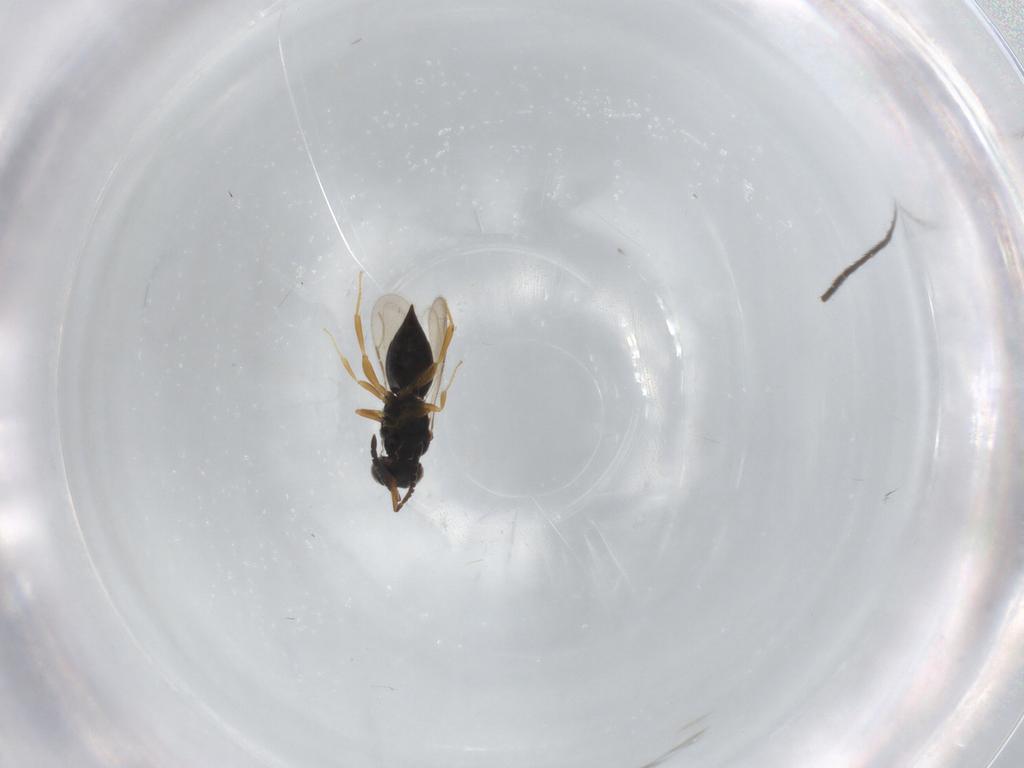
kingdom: Animalia
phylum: Arthropoda
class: Insecta
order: Hymenoptera
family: Ceraphronidae
